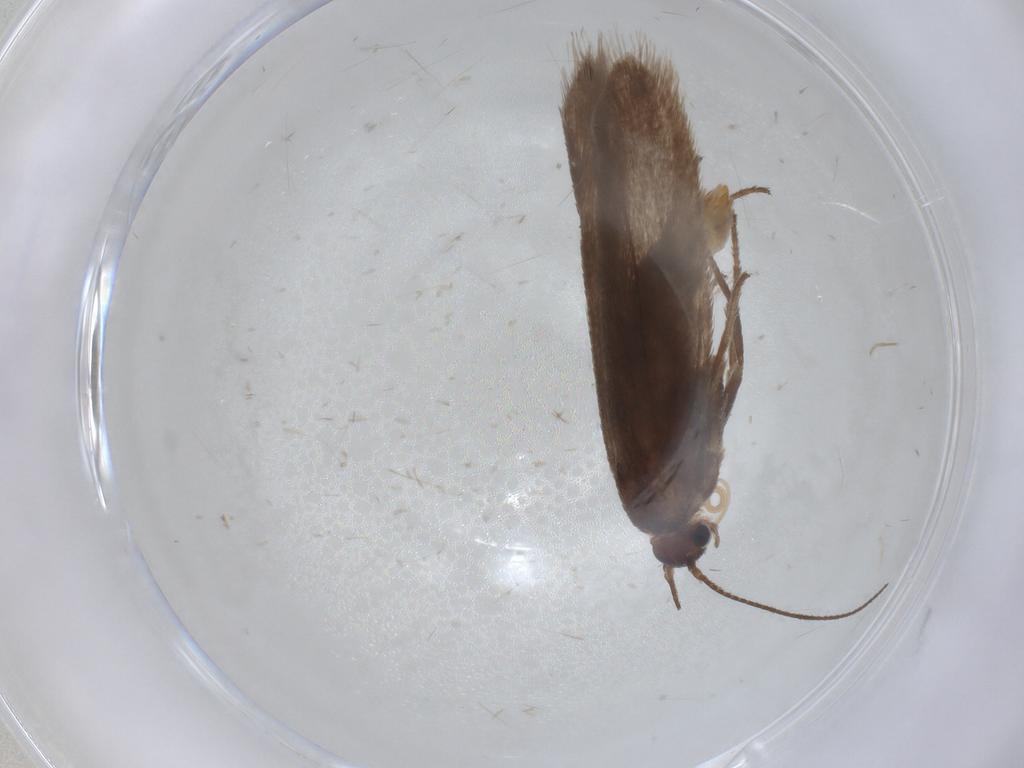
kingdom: Animalia
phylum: Arthropoda
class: Insecta
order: Lepidoptera
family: Limacodidae
